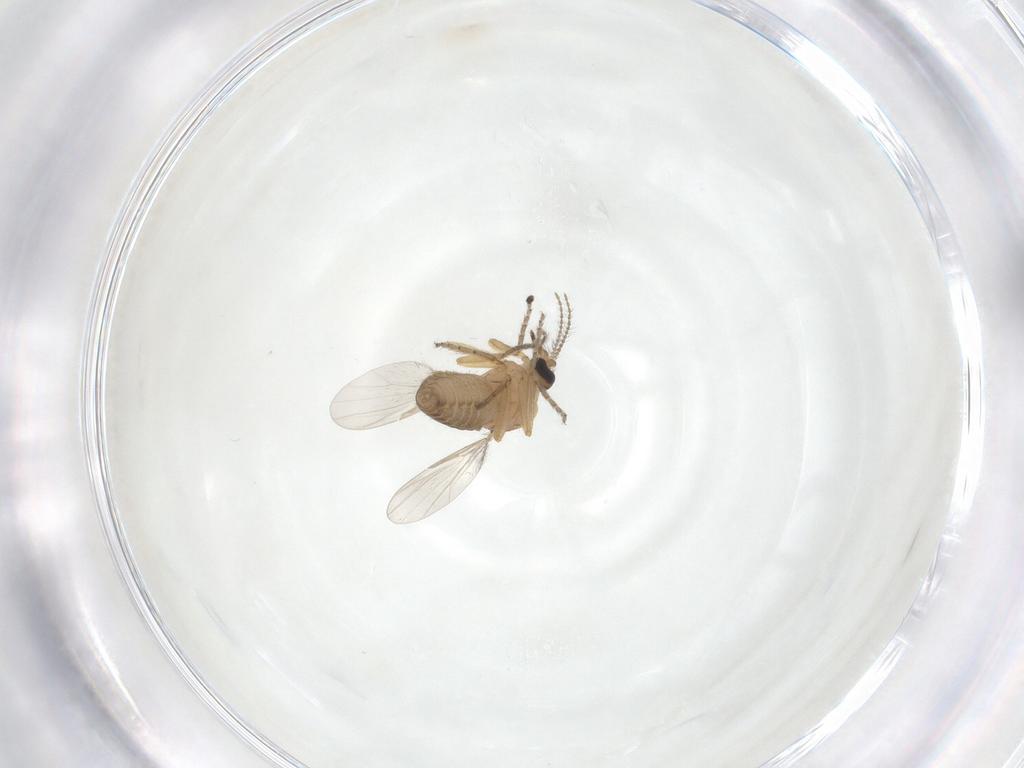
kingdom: Animalia
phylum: Arthropoda
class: Insecta
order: Diptera
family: Ceratopogonidae
